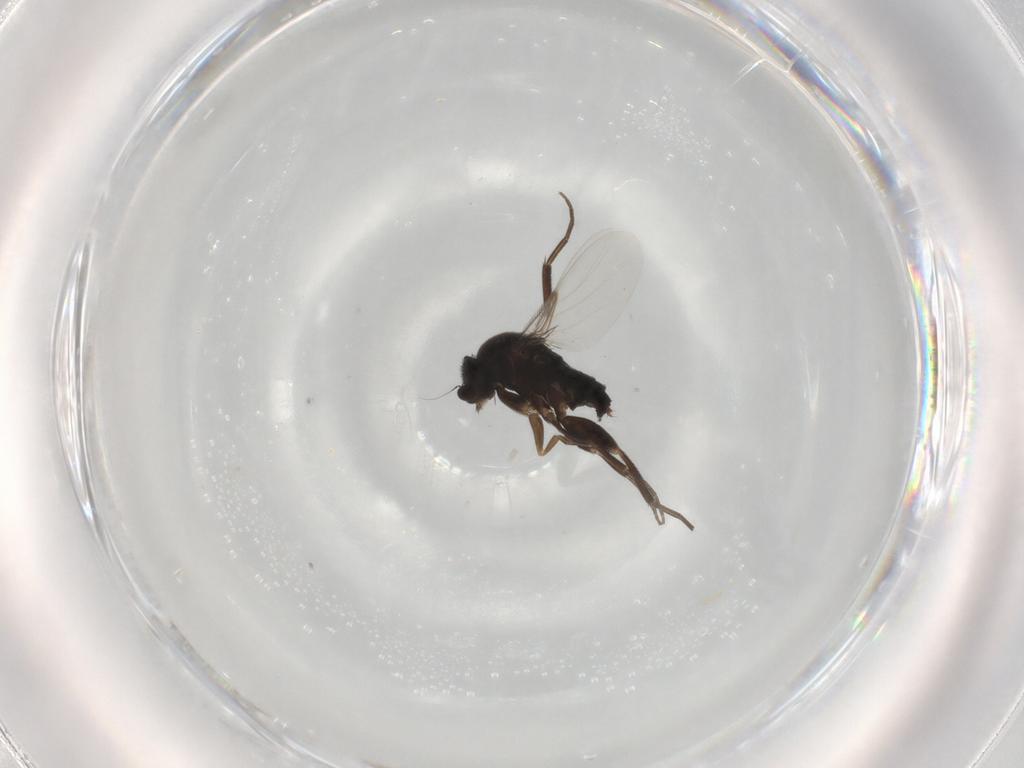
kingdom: Animalia
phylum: Arthropoda
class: Insecta
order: Diptera
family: Phoridae
